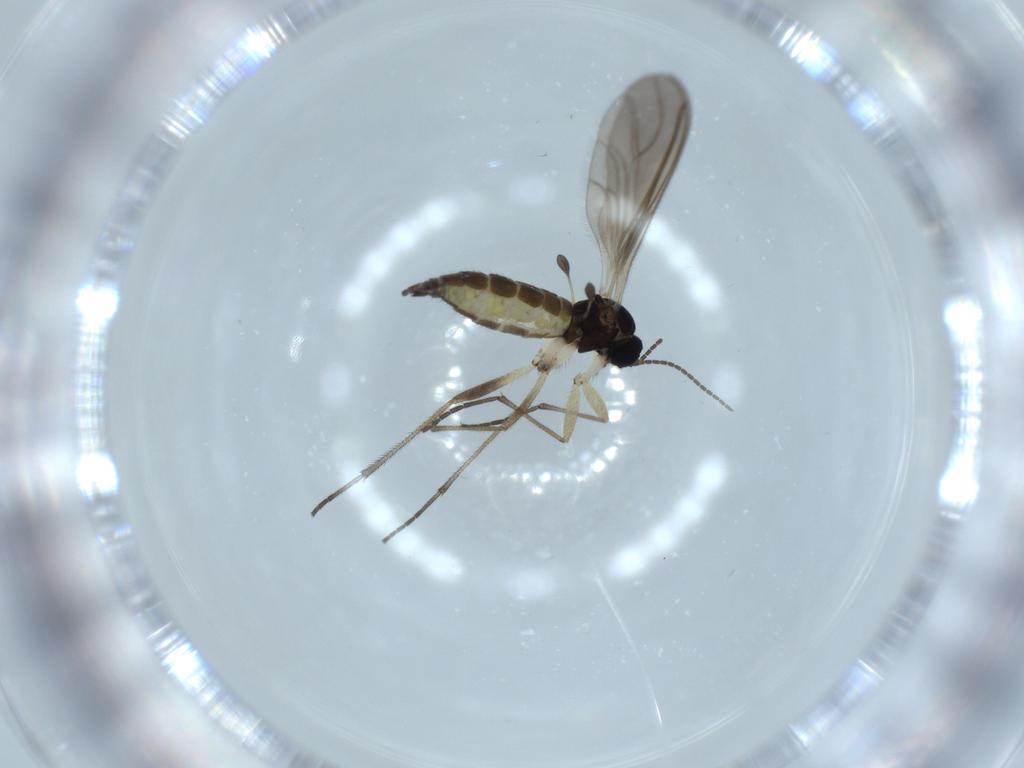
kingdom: Animalia
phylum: Arthropoda
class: Insecta
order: Diptera
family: Sciaridae
